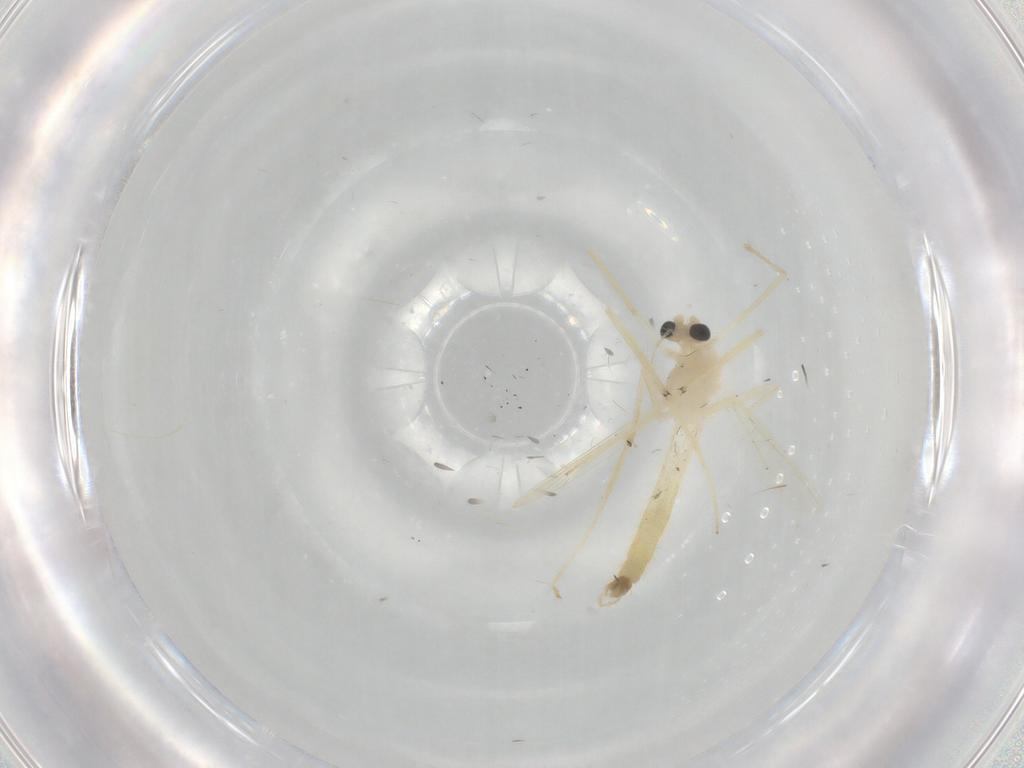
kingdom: Animalia
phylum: Arthropoda
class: Insecta
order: Diptera
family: Chironomidae
